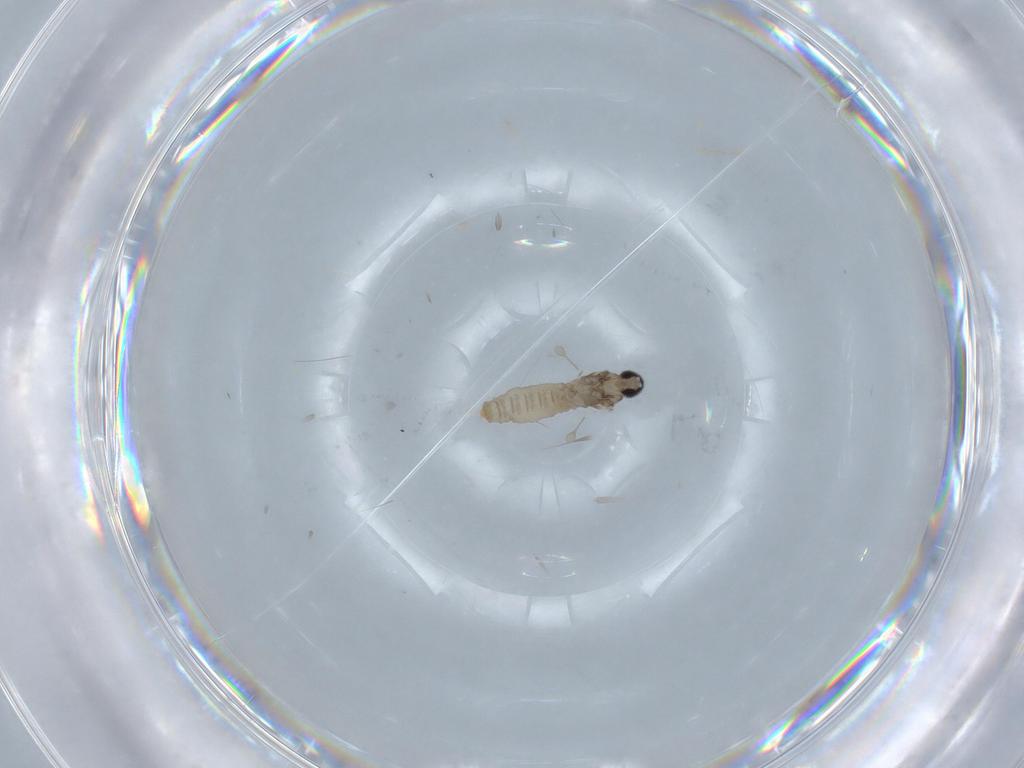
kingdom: Animalia
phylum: Arthropoda
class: Insecta
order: Diptera
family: Cecidomyiidae
